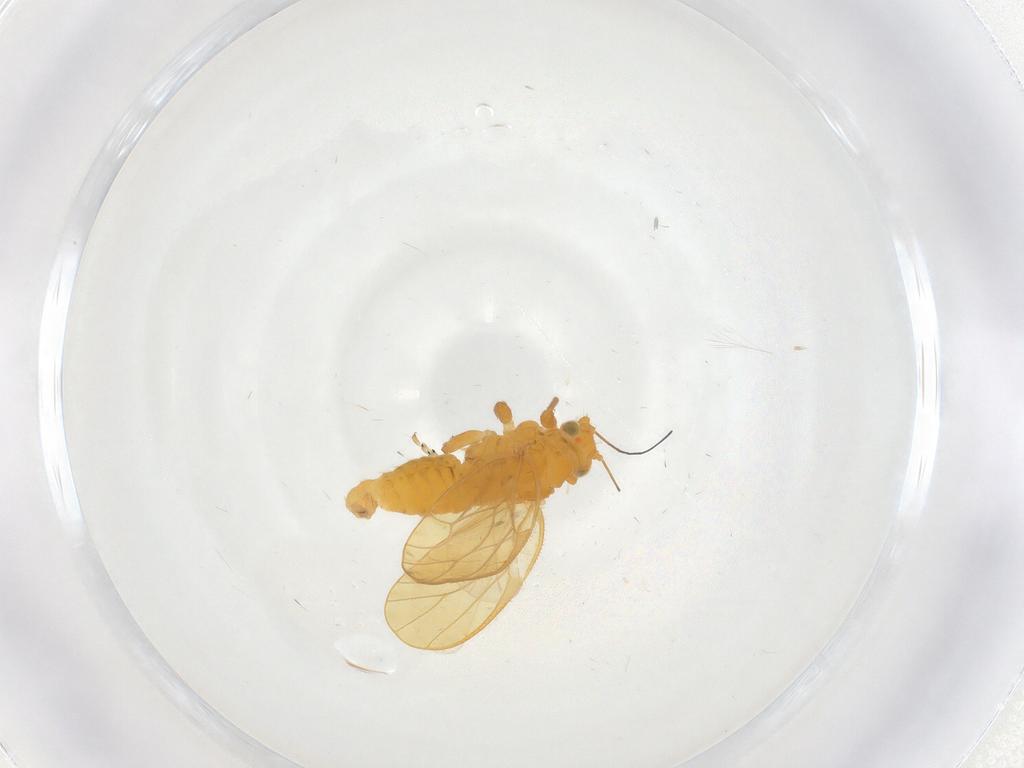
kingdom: Animalia
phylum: Arthropoda
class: Insecta
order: Hemiptera
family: Psyllidae
